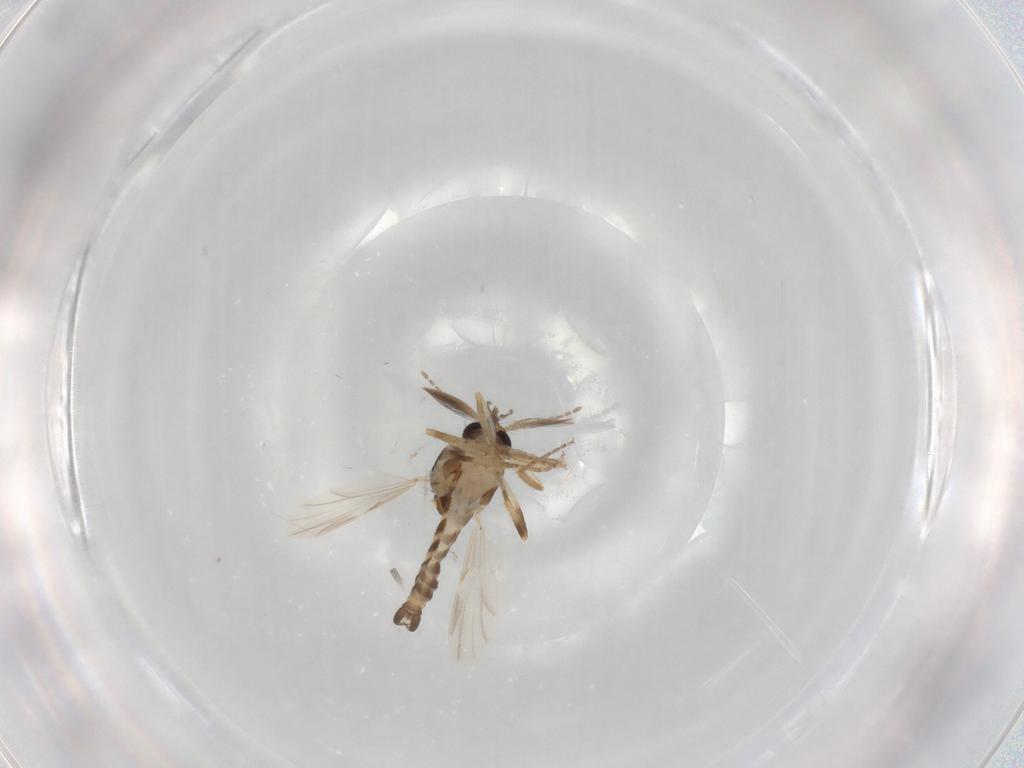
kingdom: Animalia
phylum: Arthropoda
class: Insecta
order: Diptera
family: Ceratopogonidae
